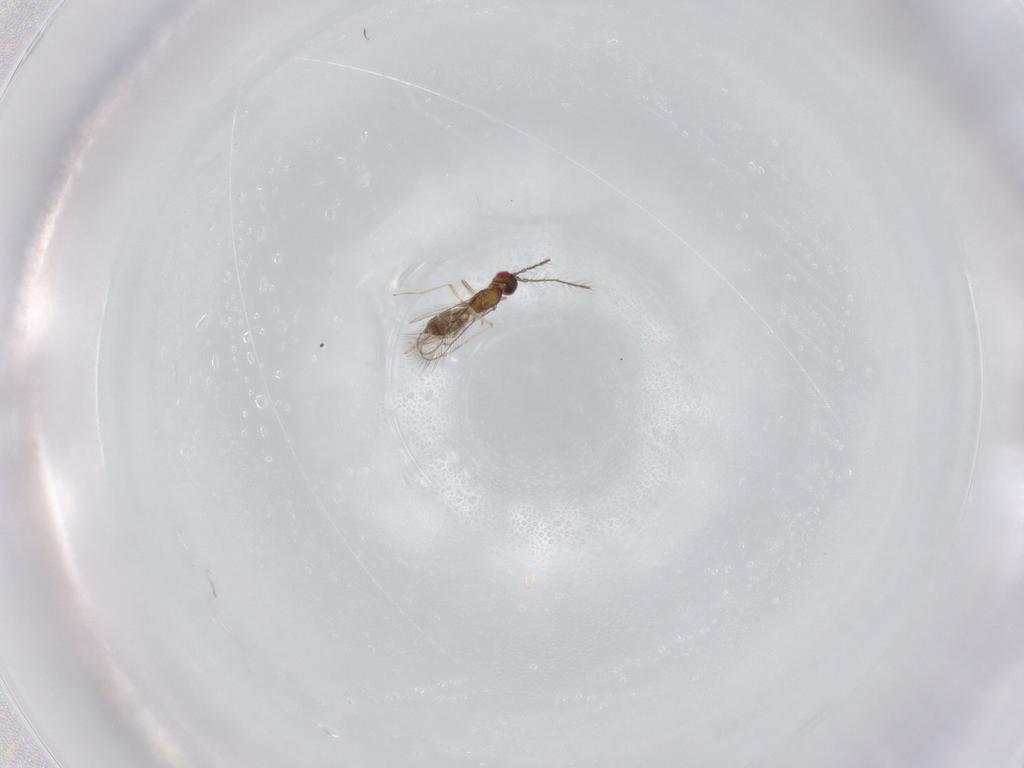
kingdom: Animalia
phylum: Arthropoda
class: Insecta
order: Hymenoptera
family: Eulophidae
